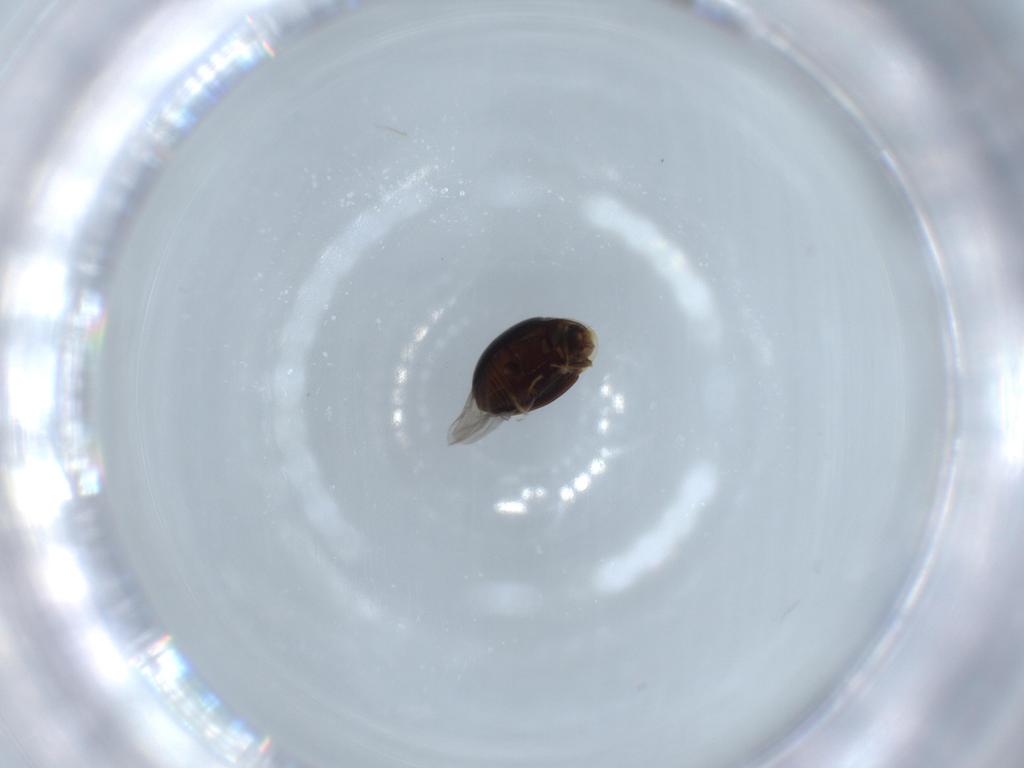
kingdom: Animalia
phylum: Arthropoda
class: Insecta
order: Coleoptera
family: Corylophidae
